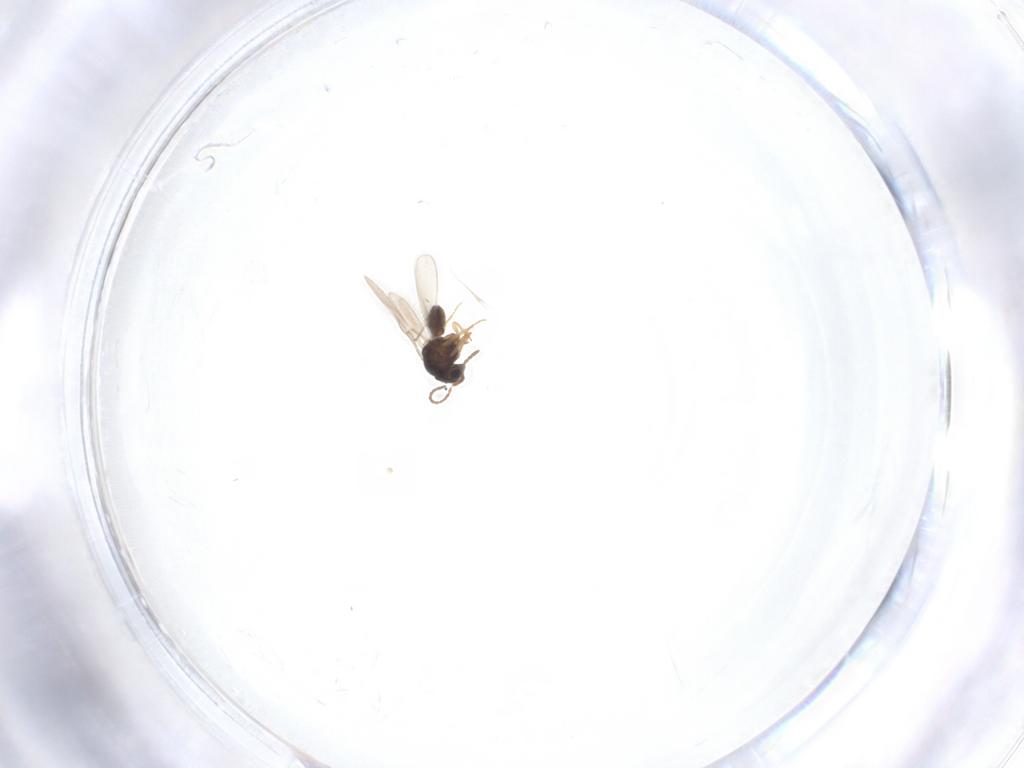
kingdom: Animalia
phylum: Arthropoda
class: Insecta
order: Hymenoptera
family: Scelionidae
